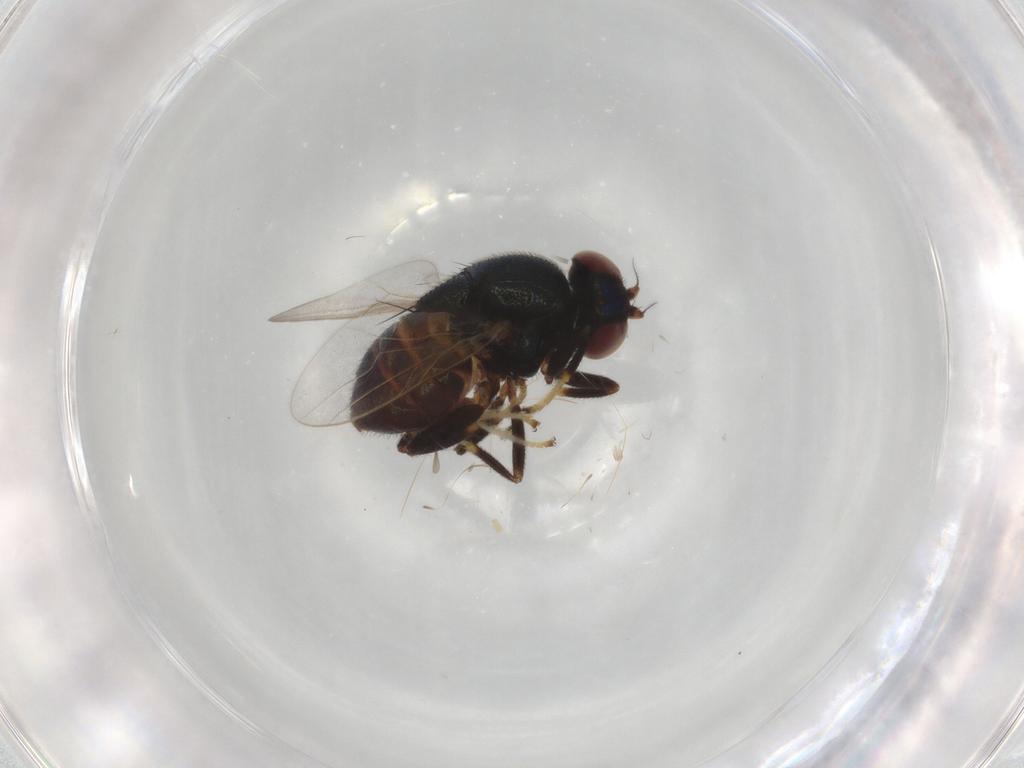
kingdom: Animalia
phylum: Arthropoda
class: Insecta
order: Diptera
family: Chloropidae
